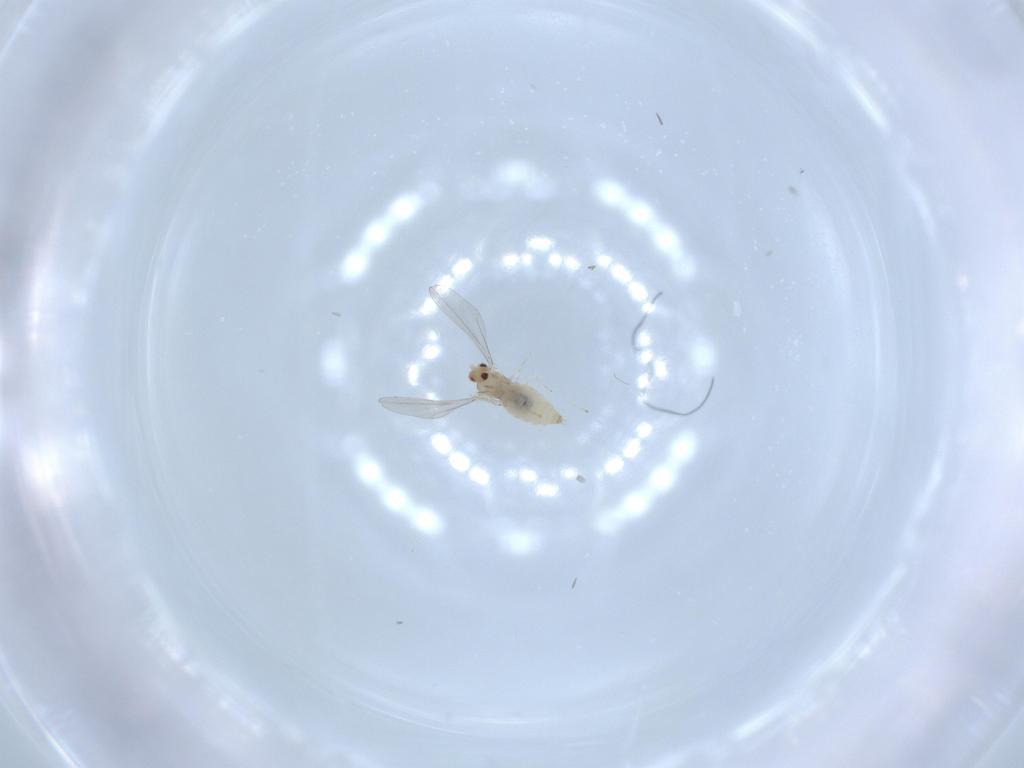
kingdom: Animalia
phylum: Arthropoda
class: Insecta
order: Diptera
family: Cecidomyiidae
